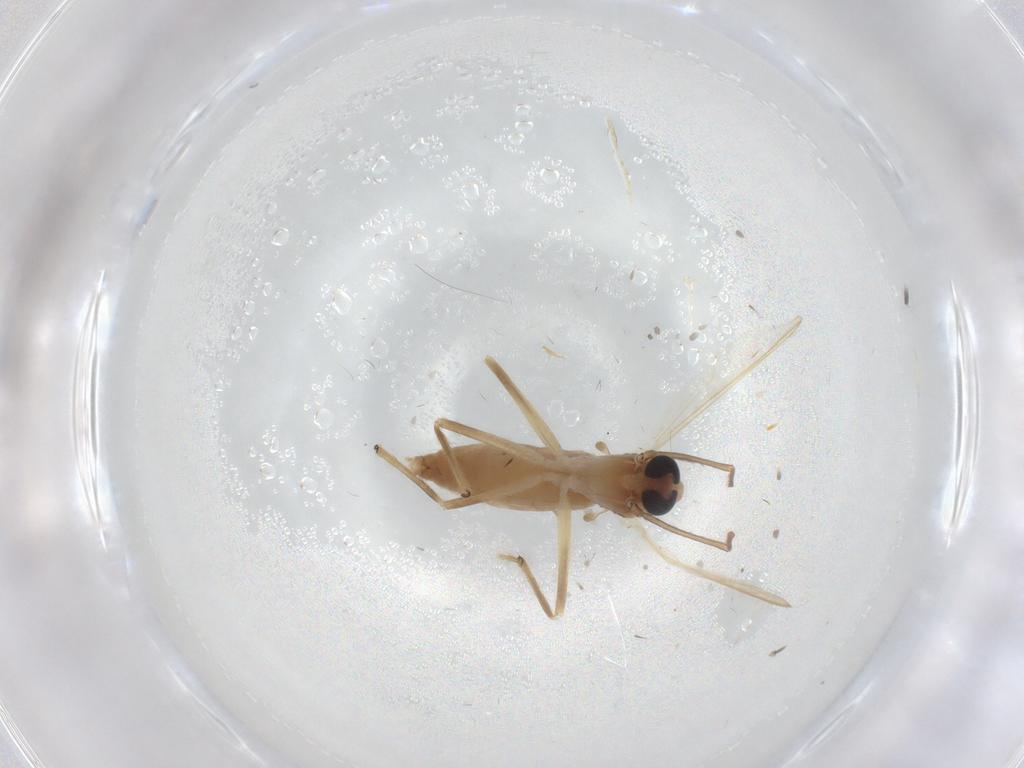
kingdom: Animalia
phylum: Arthropoda
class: Insecta
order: Diptera
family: Chironomidae
